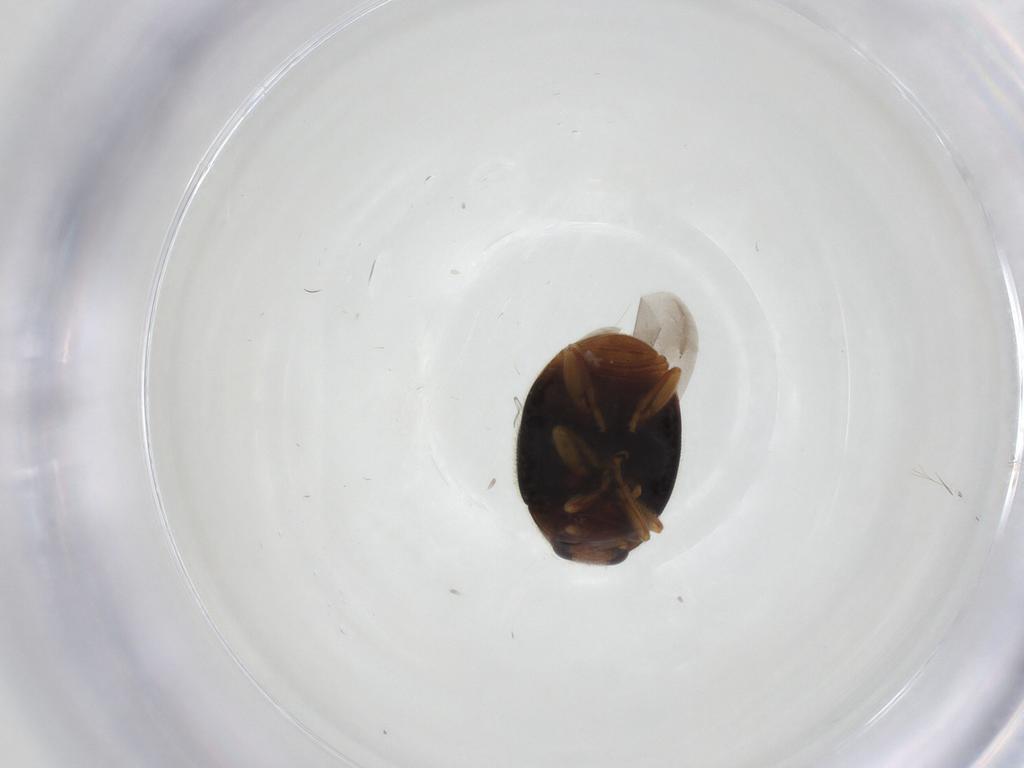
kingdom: Animalia
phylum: Arthropoda
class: Insecta
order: Coleoptera
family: Coccinellidae
